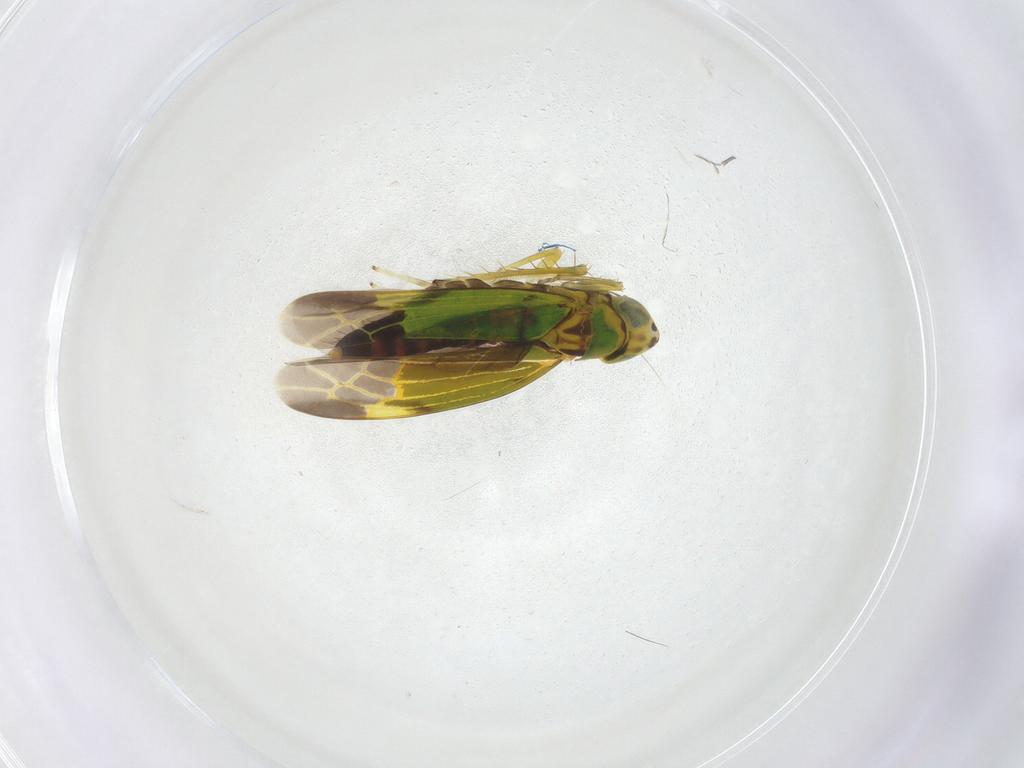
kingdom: Animalia
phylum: Arthropoda
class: Insecta
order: Hemiptera
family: Cicadellidae
